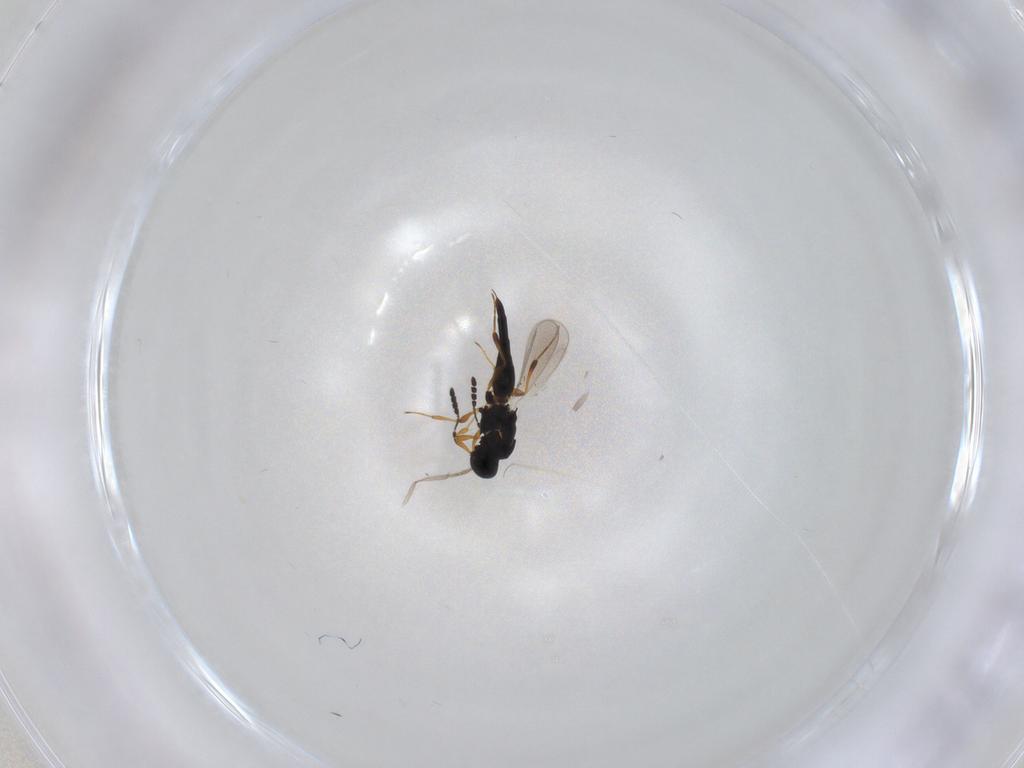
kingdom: Animalia
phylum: Arthropoda
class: Insecta
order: Hymenoptera
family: Platygastridae
